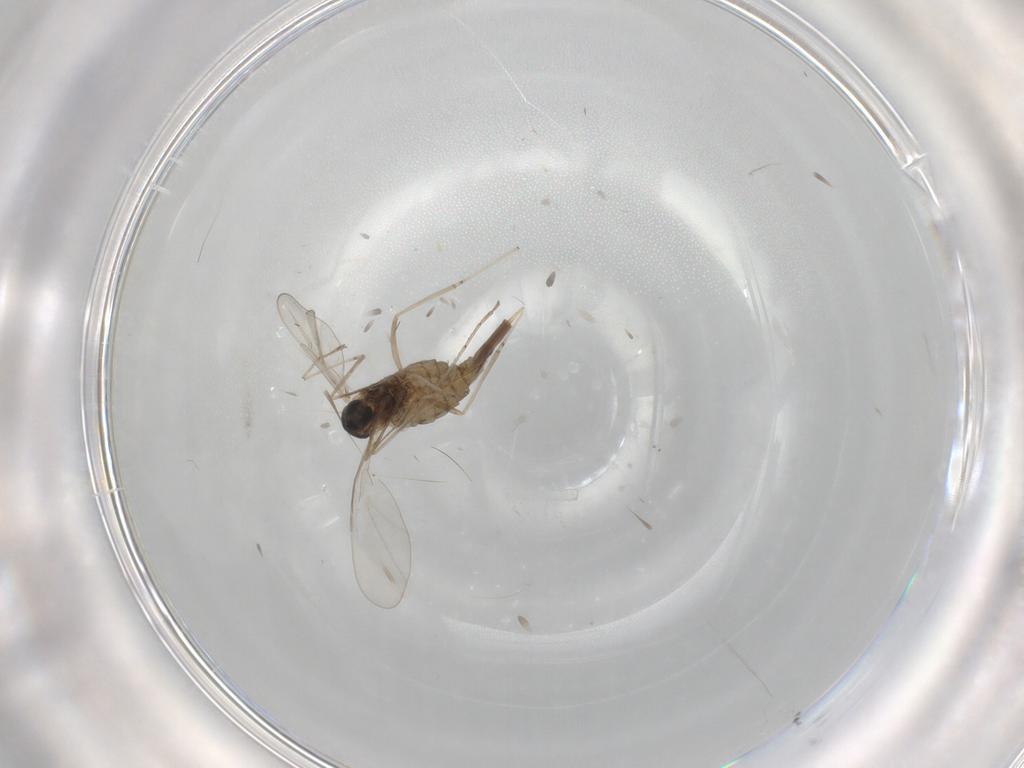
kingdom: Animalia
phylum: Arthropoda
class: Insecta
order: Diptera
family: Cecidomyiidae
